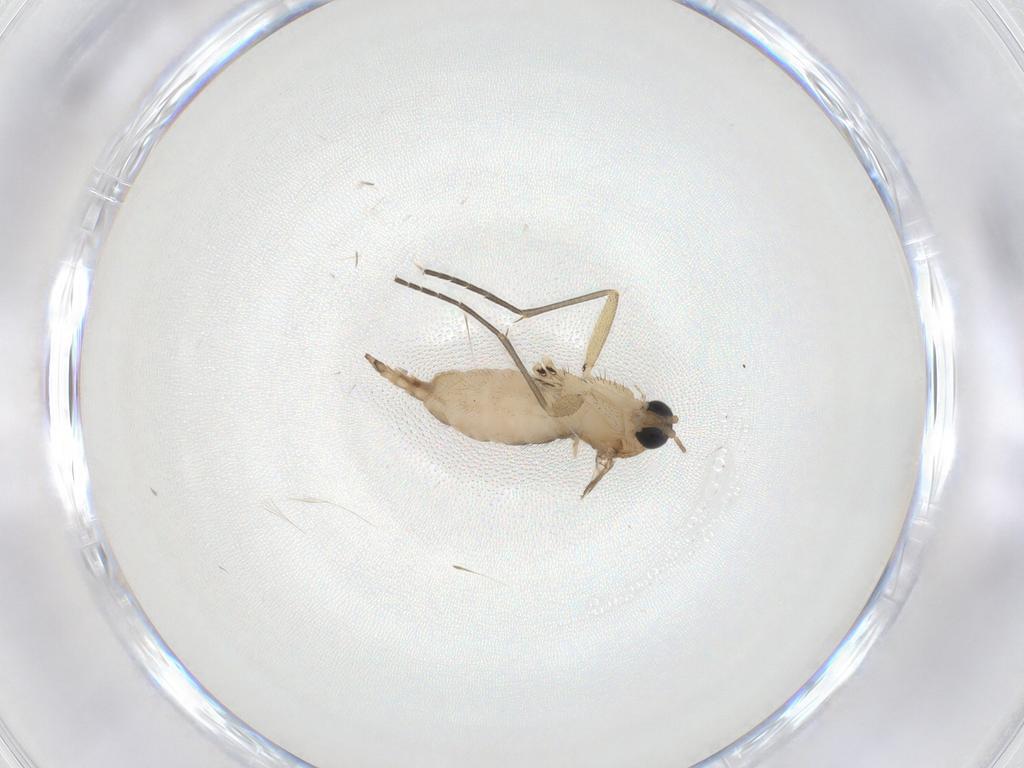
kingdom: Animalia
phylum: Arthropoda
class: Insecta
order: Diptera
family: Sciaridae
